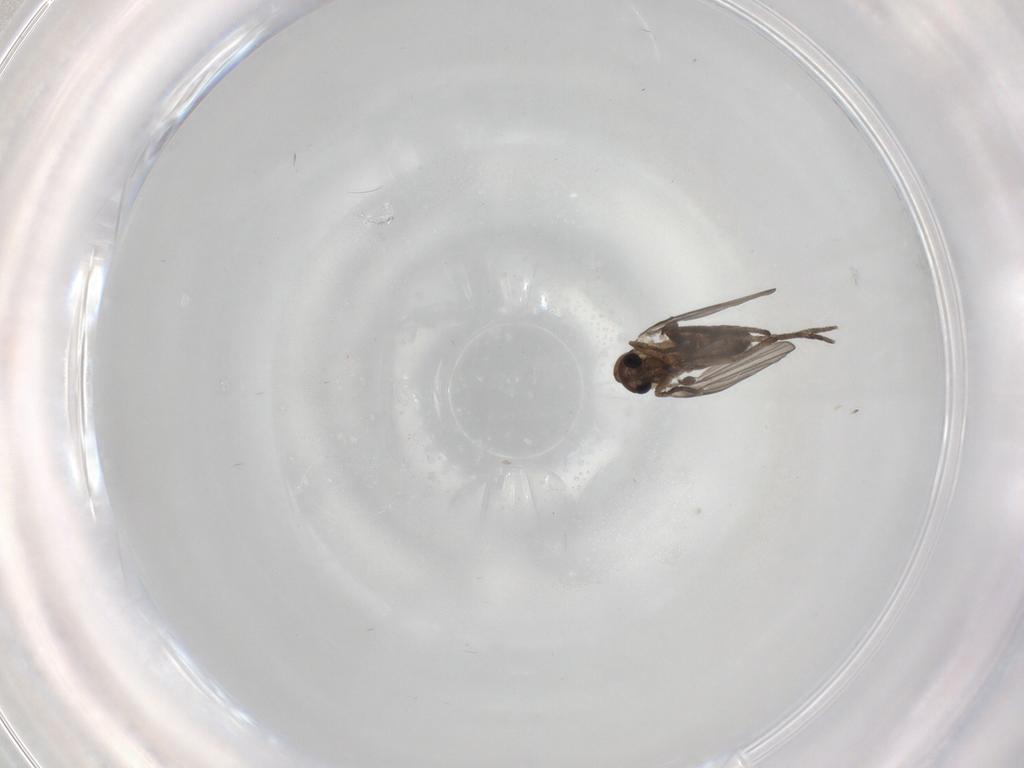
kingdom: Animalia
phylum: Arthropoda
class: Insecta
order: Diptera
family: Psychodidae
